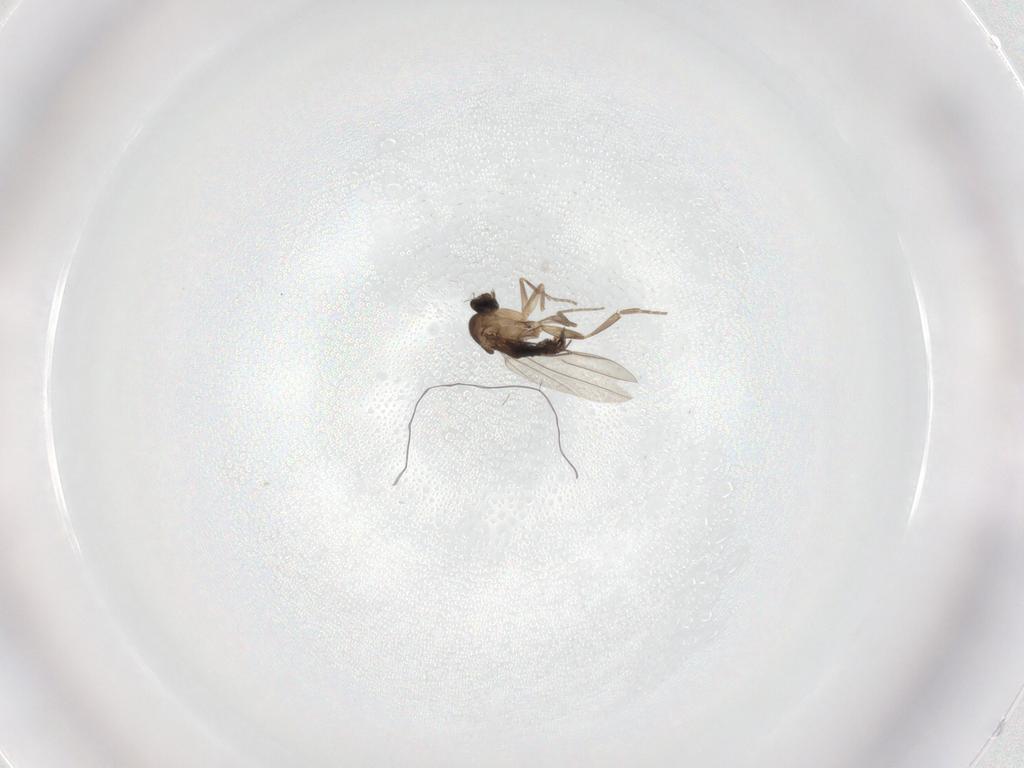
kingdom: Animalia
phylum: Arthropoda
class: Insecta
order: Diptera
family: Phoridae
